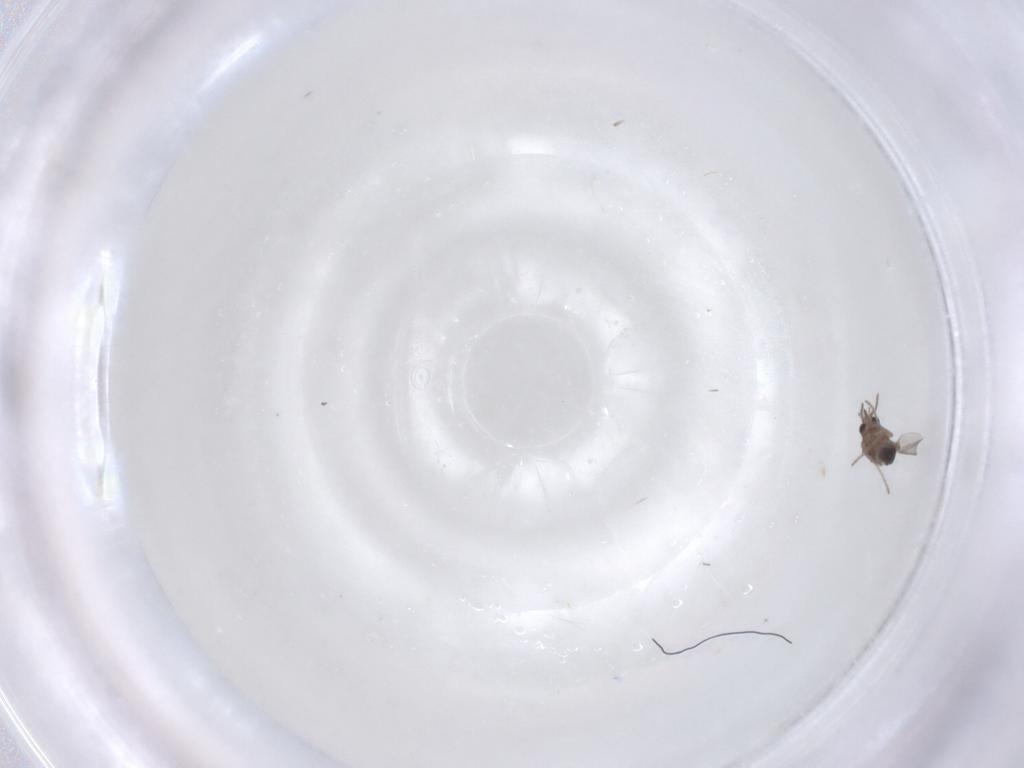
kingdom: Animalia
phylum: Arthropoda
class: Insecta
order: Diptera
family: Ceratopogonidae
